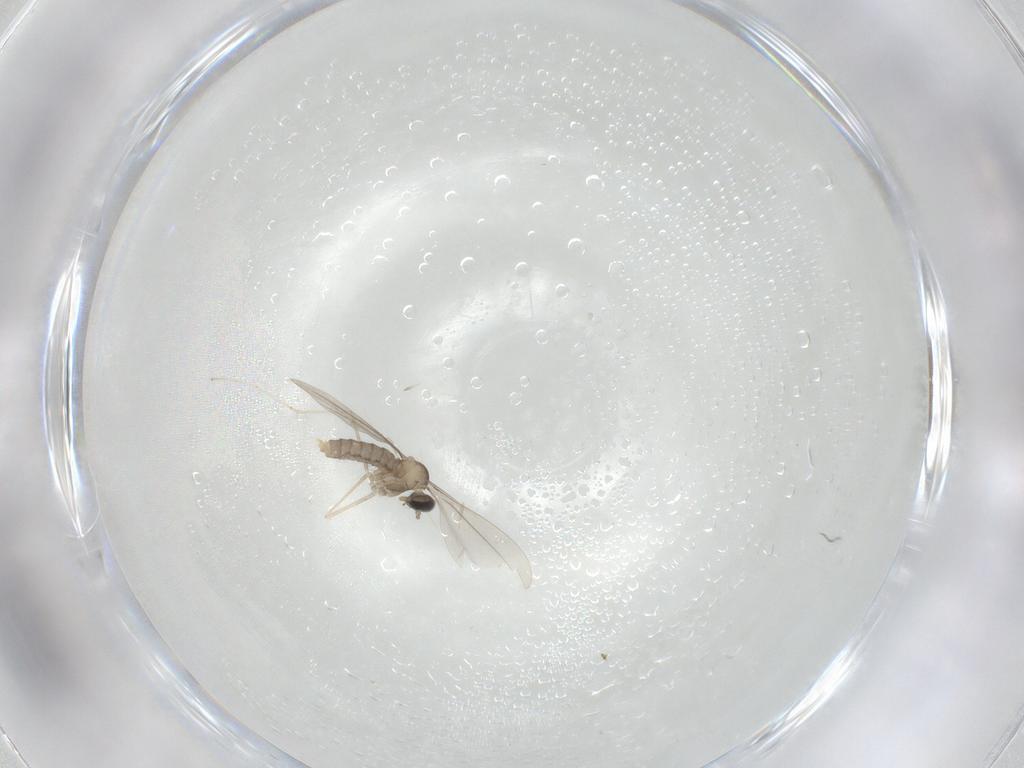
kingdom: Animalia
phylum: Arthropoda
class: Insecta
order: Diptera
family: Cecidomyiidae
